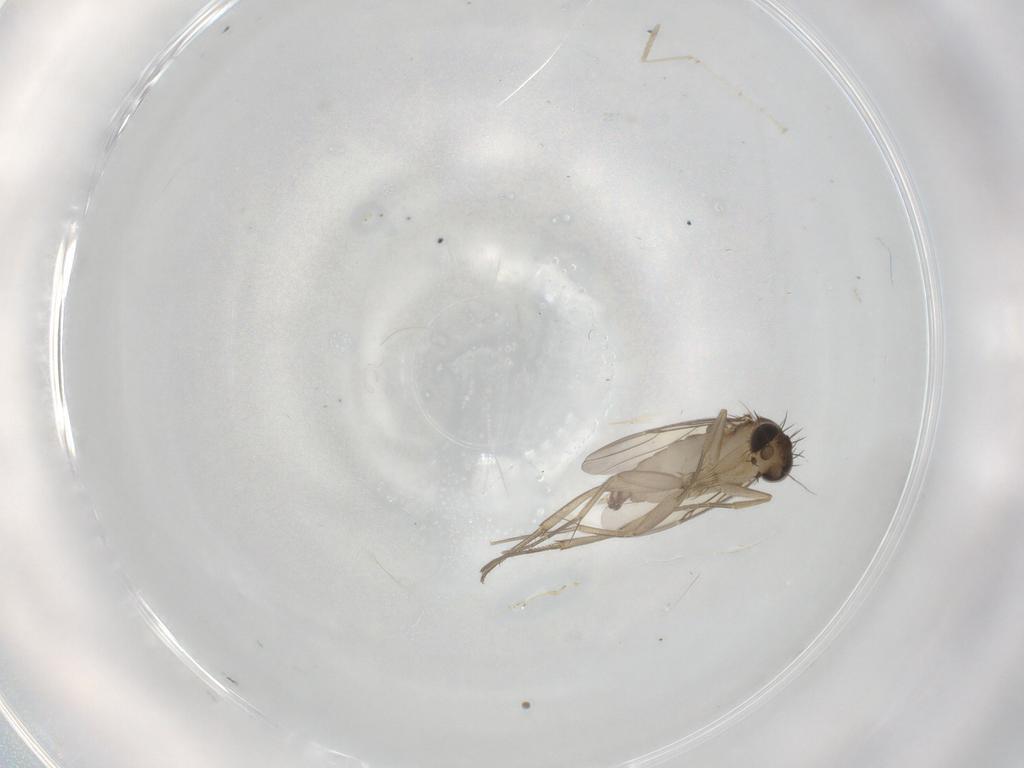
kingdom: Animalia
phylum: Arthropoda
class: Insecta
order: Diptera
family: Phoridae
